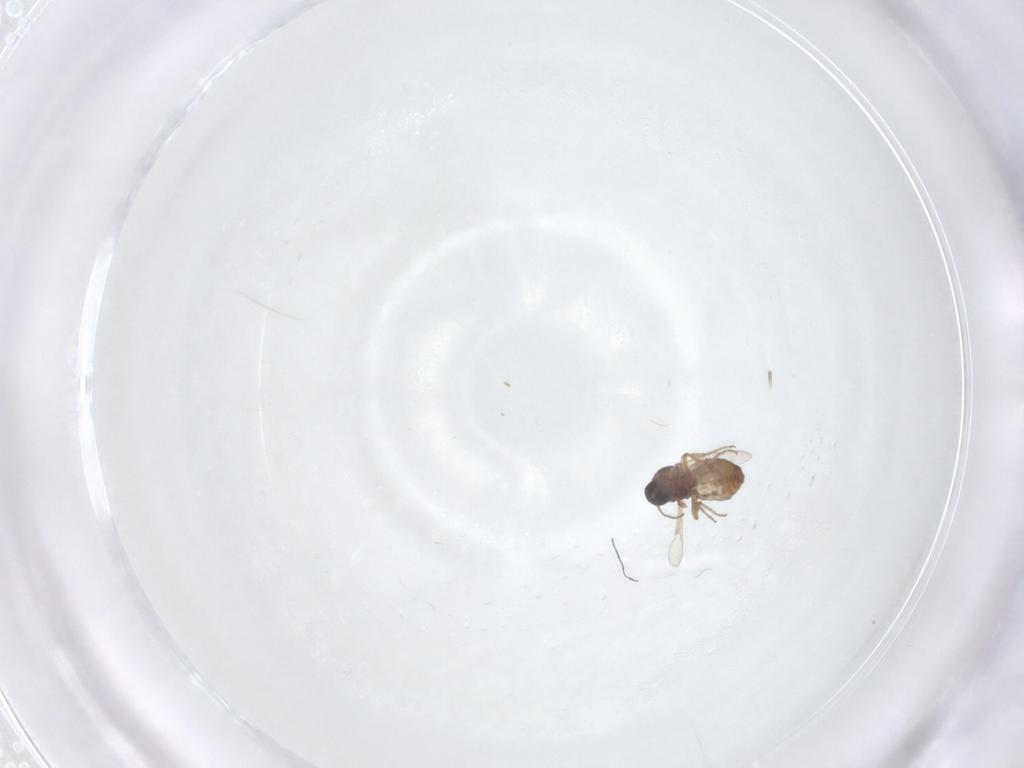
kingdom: Animalia
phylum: Arthropoda
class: Insecta
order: Diptera
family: Ceratopogonidae
